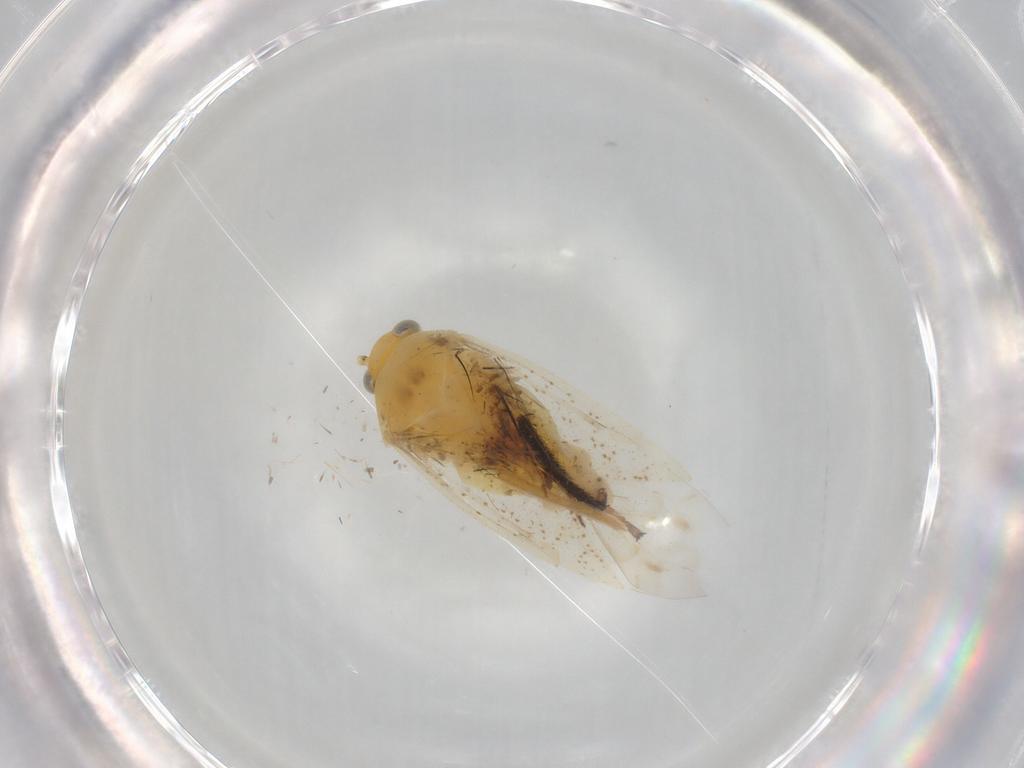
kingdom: Animalia
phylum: Arthropoda
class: Insecta
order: Hemiptera
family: Miridae
